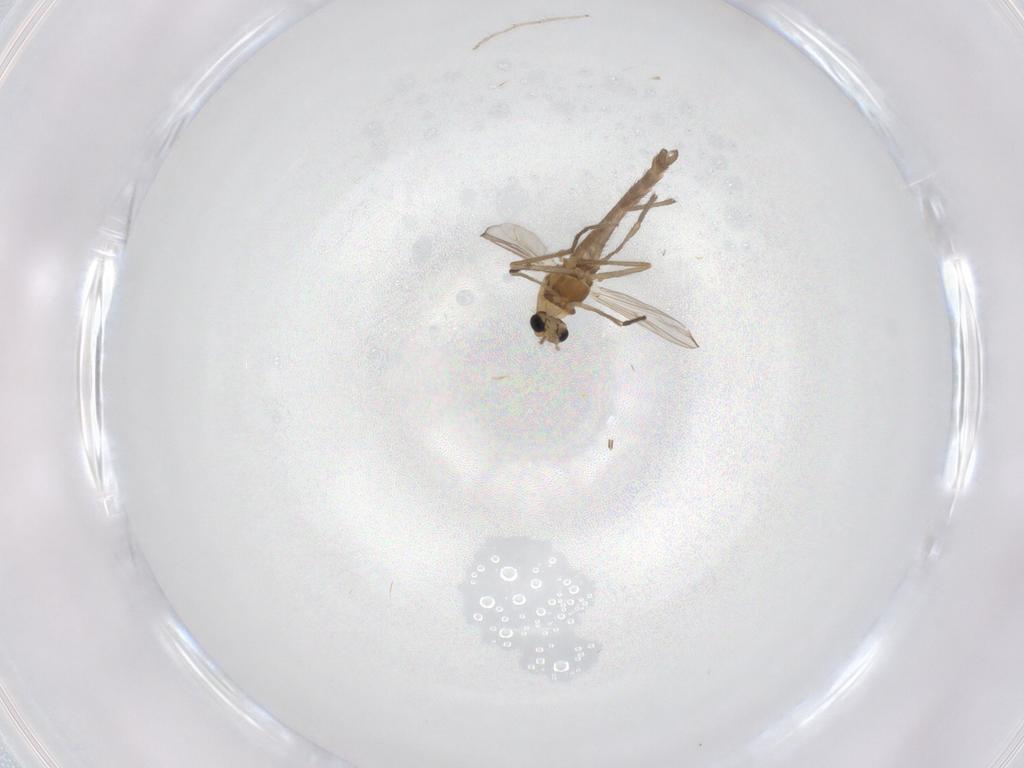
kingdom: Animalia
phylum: Arthropoda
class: Insecta
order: Diptera
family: Chironomidae
